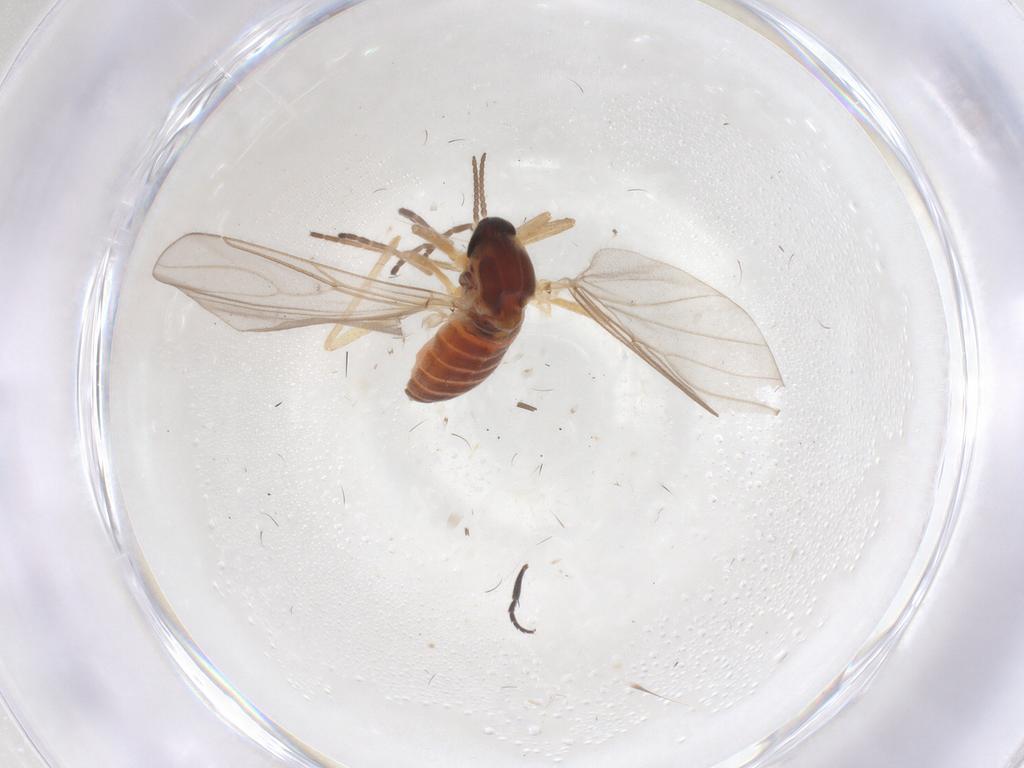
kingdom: Animalia
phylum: Arthropoda
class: Insecta
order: Diptera
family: Cecidomyiidae
